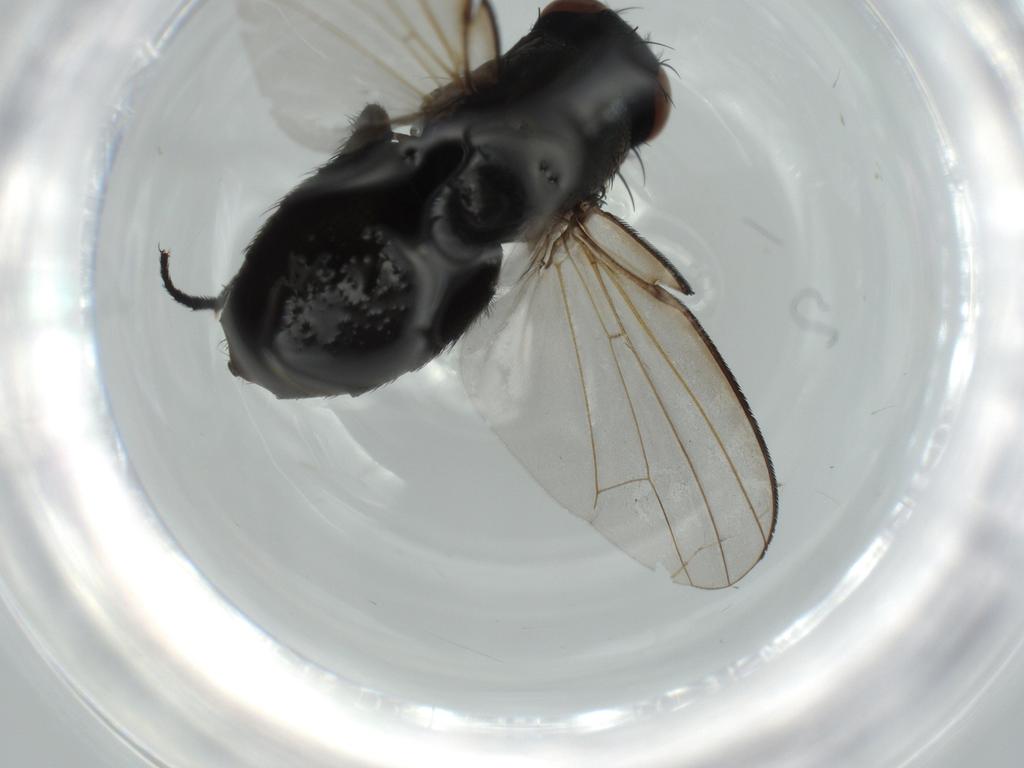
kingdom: Animalia
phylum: Arthropoda
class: Insecta
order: Diptera
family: Milichiidae
